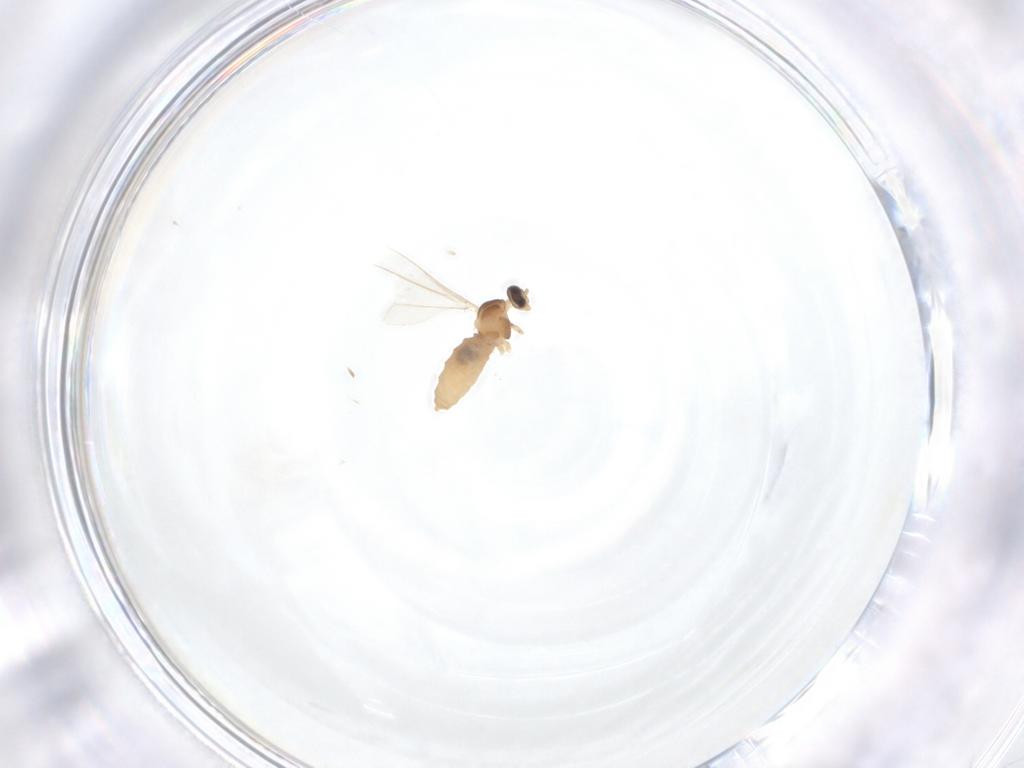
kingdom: Animalia
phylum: Arthropoda
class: Insecta
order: Diptera
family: Cecidomyiidae
